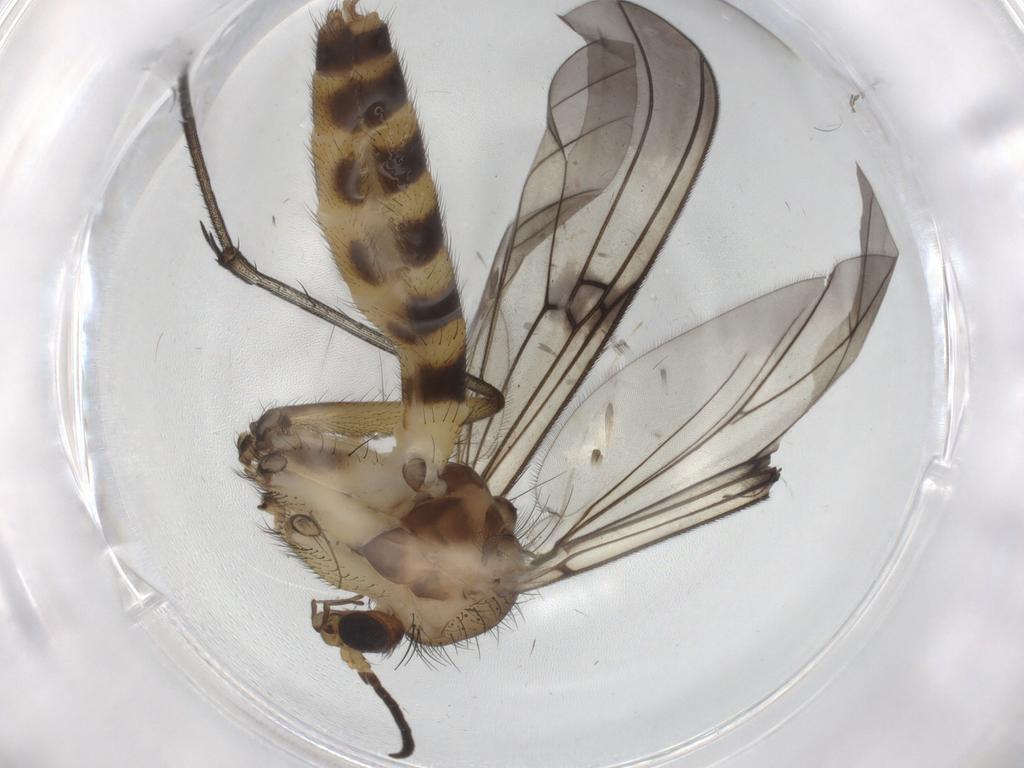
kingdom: Animalia
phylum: Arthropoda
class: Insecta
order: Diptera
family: Mycetophilidae
